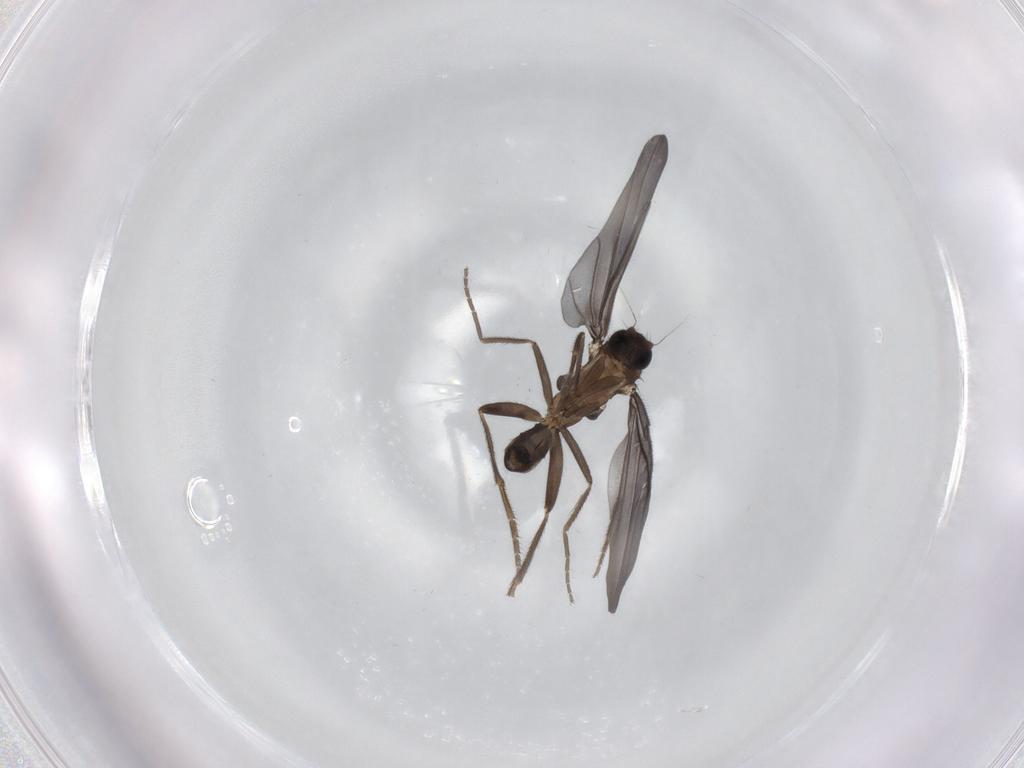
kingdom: Animalia
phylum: Arthropoda
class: Insecta
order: Diptera
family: Phoridae
